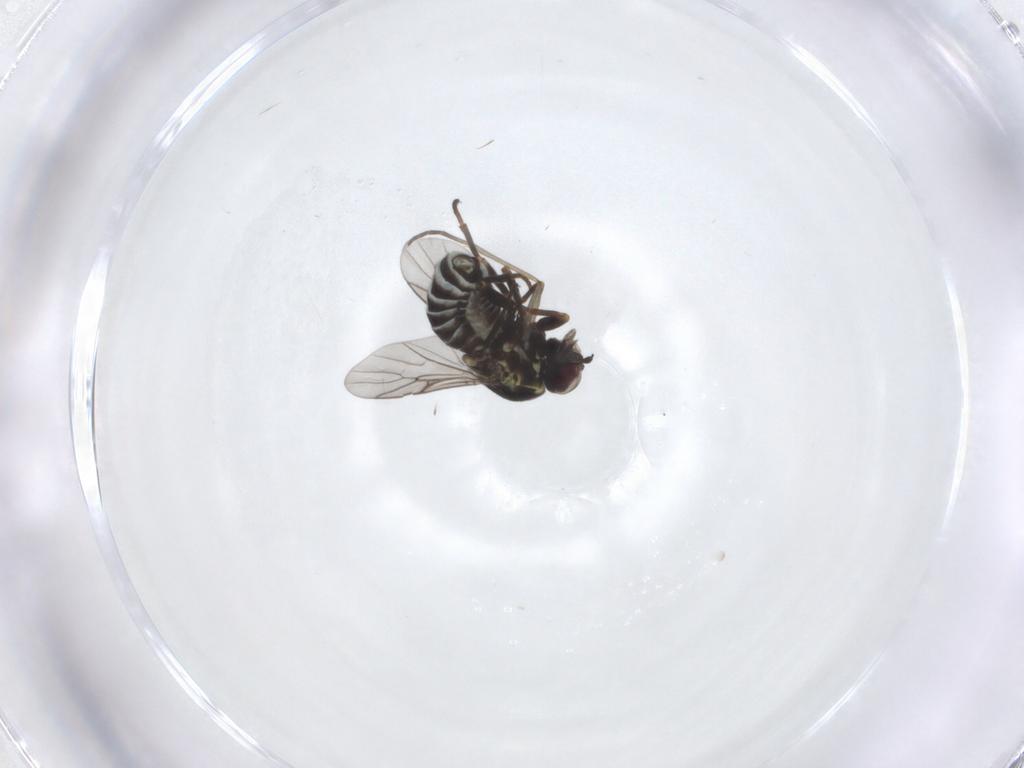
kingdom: Animalia
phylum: Arthropoda
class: Insecta
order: Diptera
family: Bombyliidae
